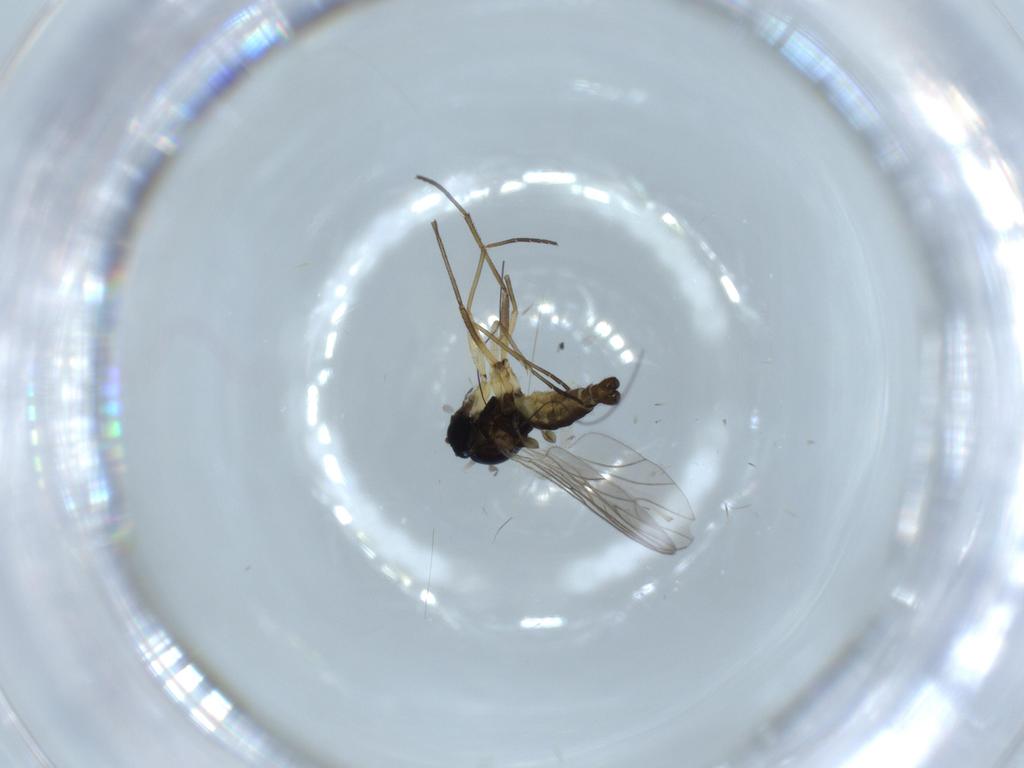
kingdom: Animalia
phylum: Arthropoda
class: Insecta
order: Diptera
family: Sciaridae
